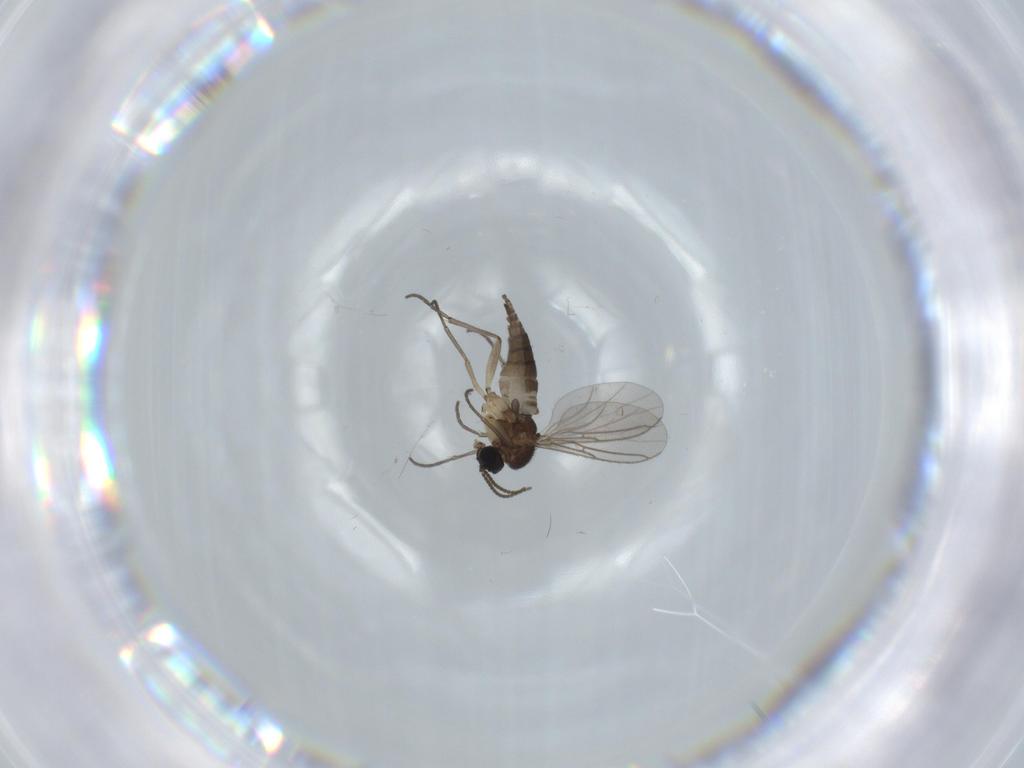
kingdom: Animalia
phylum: Arthropoda
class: Insecta
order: Diptera
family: Sciaridae
